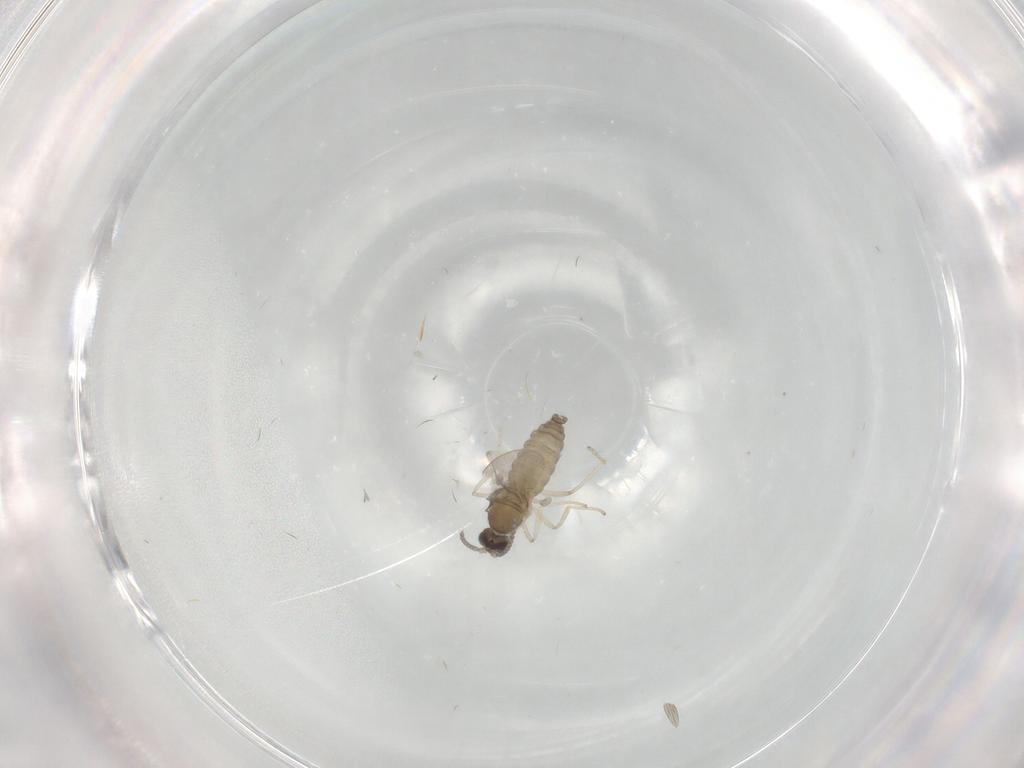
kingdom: Animalia
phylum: Arthropoda
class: Insecta
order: Diptera
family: Cecidomyiidae
